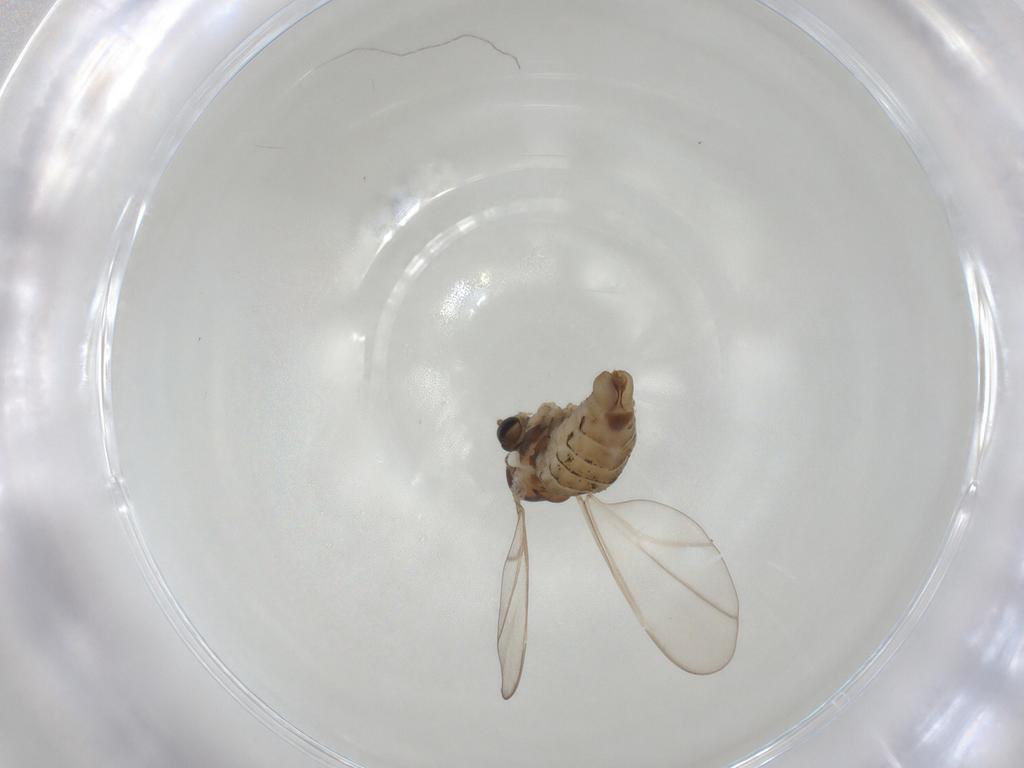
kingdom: Animalia
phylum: Arthropoda
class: Insecta
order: Diptera
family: Cecidomyiidae
